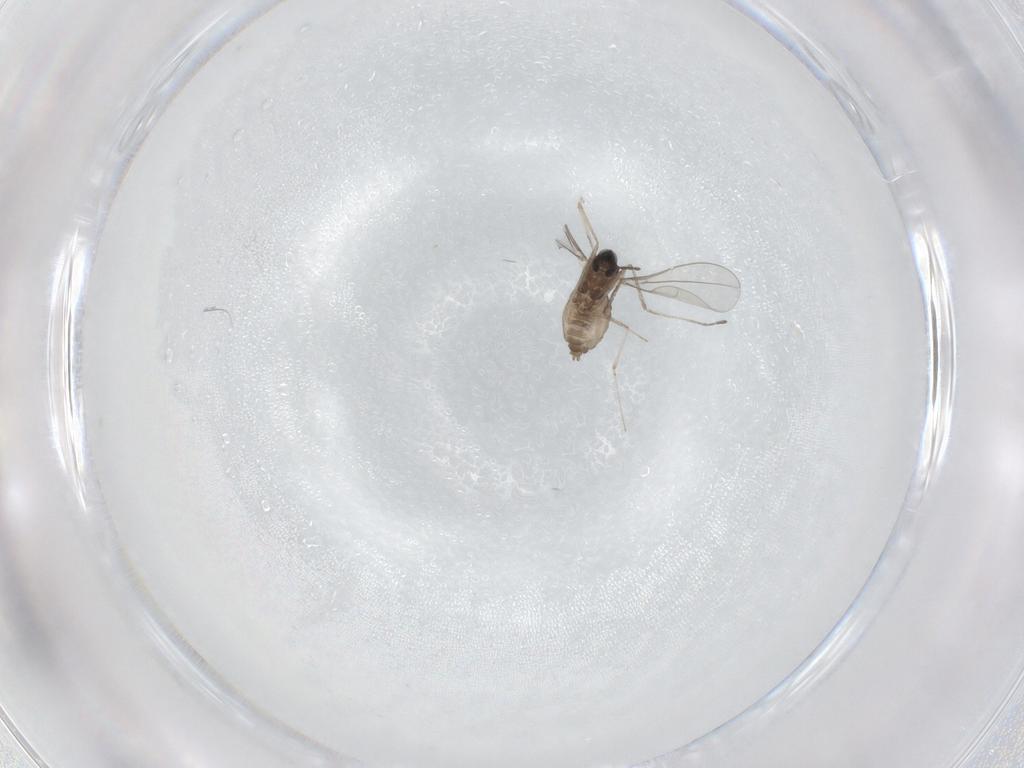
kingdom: Animalia
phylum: Arthropoda
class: Insecta
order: Diptera
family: Cecidomyiidae
